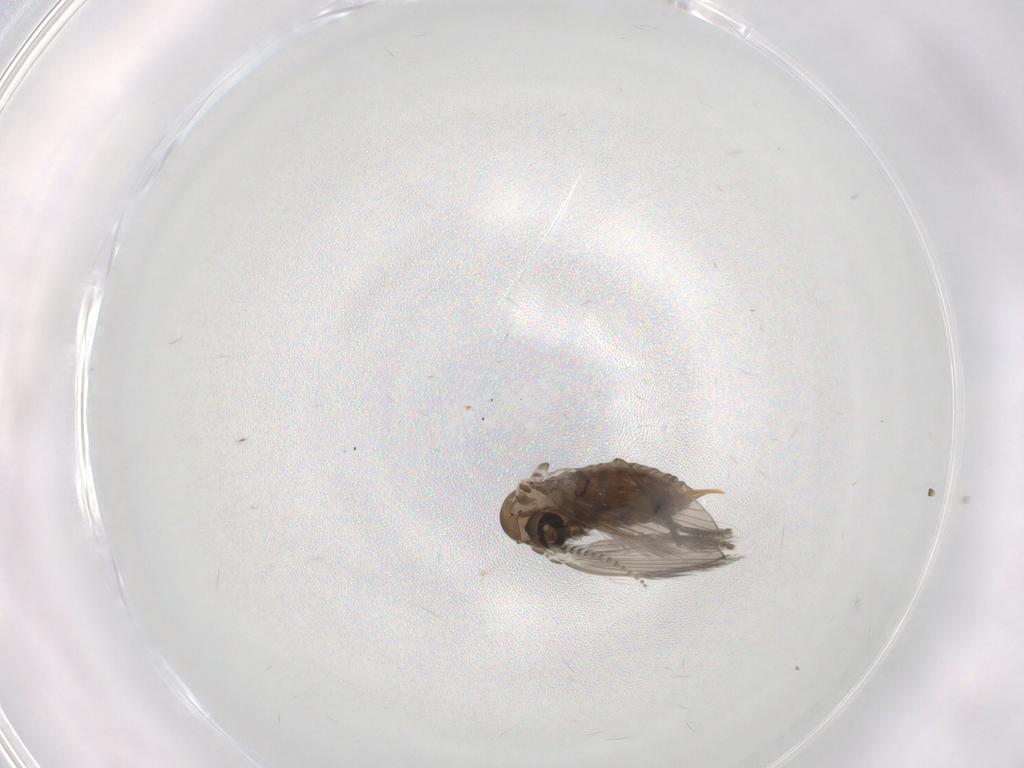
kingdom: Animalia
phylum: Arthropoda
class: Insecta
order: Diptera
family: Psychodidae
